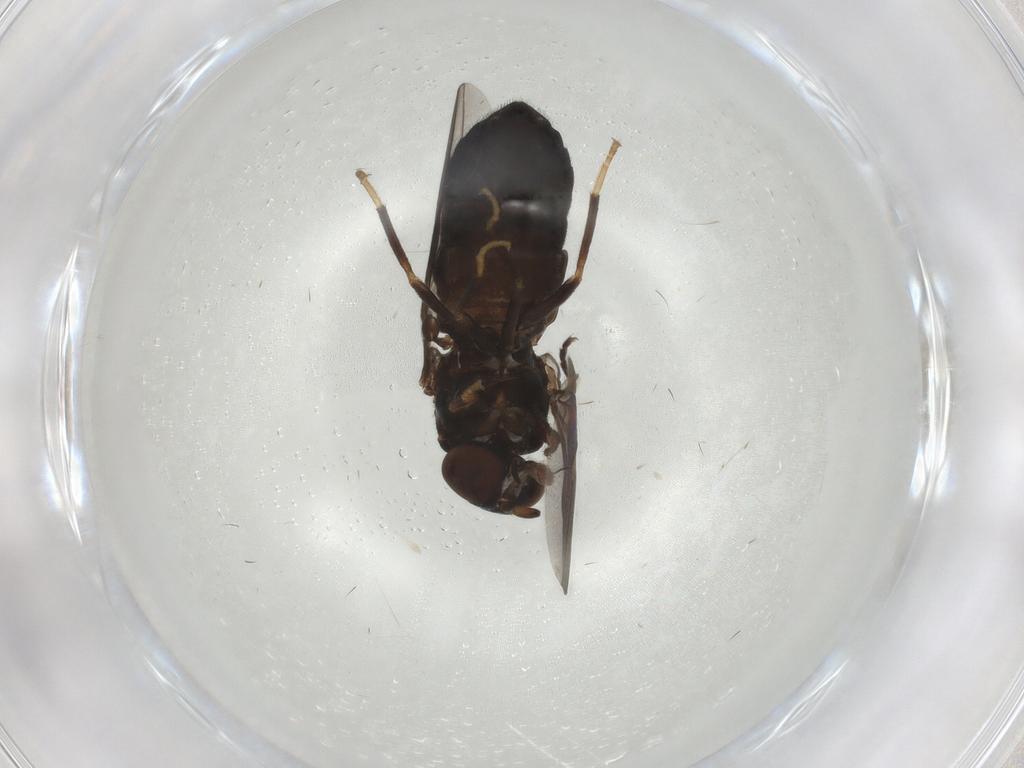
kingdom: Animalia
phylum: Arthropoda
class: Insecta
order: Diptera
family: Tachinidae
